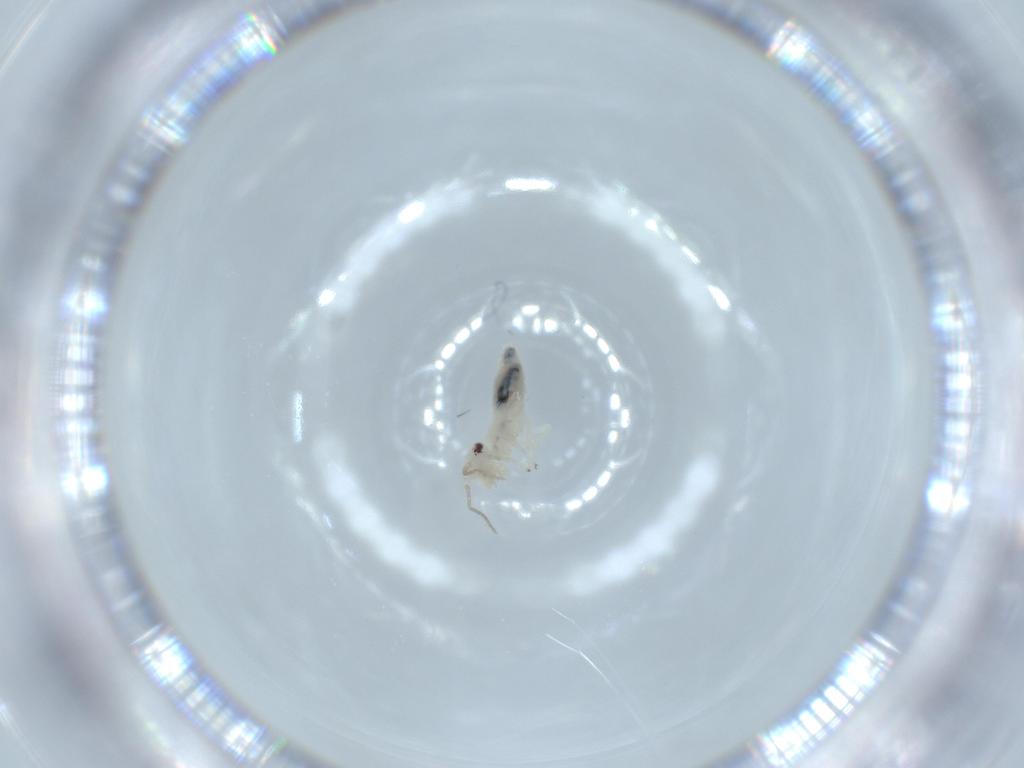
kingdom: Animalia
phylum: Arthropoda
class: Insecta
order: Psocodea
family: Caeciliusidae
